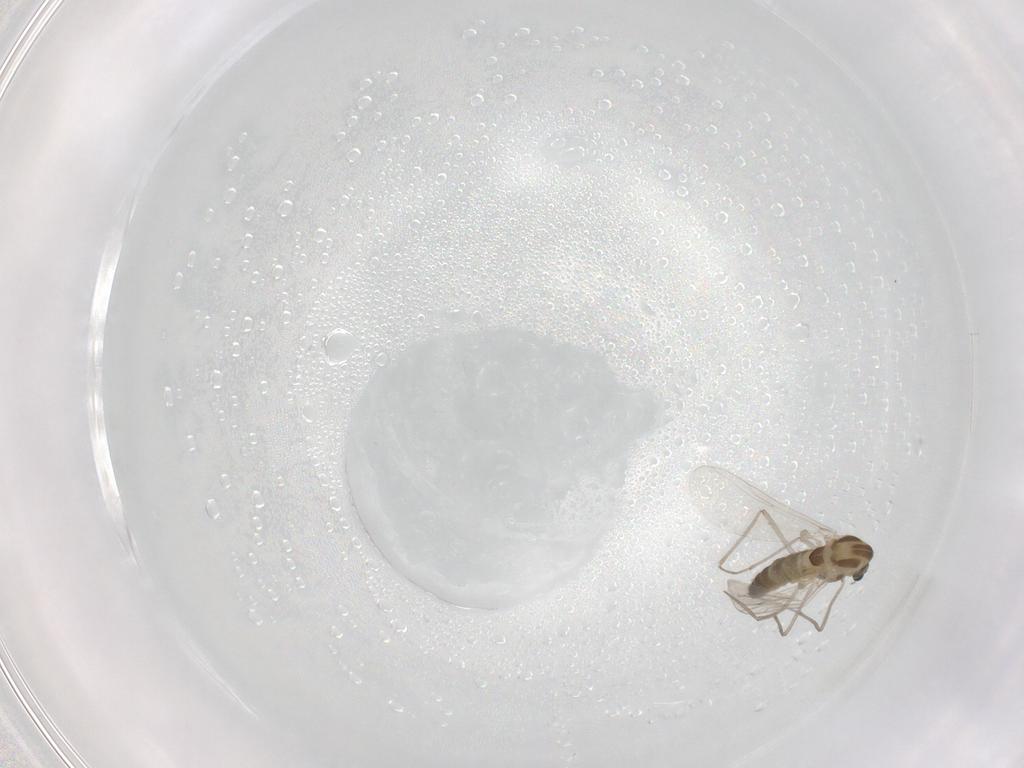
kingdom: Animalia
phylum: Arthropoda
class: Insecta
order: Diptera
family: Chironomidae
